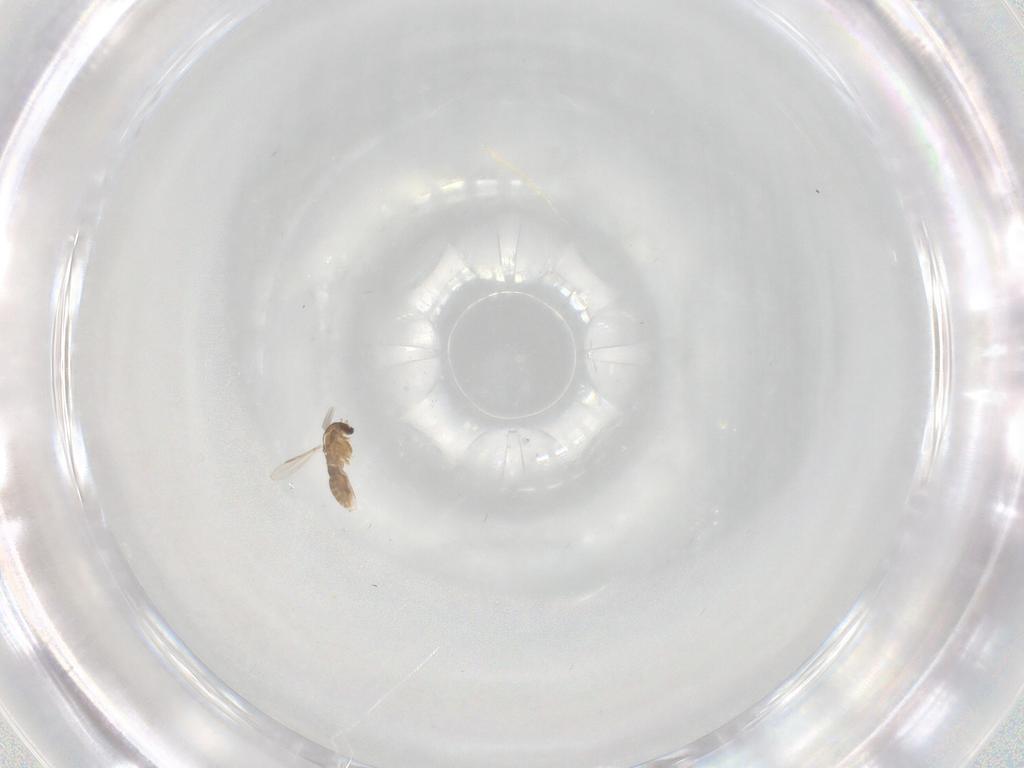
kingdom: Animalia
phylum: Arthropoda
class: Insecta
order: Diptera
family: Chironomidae
